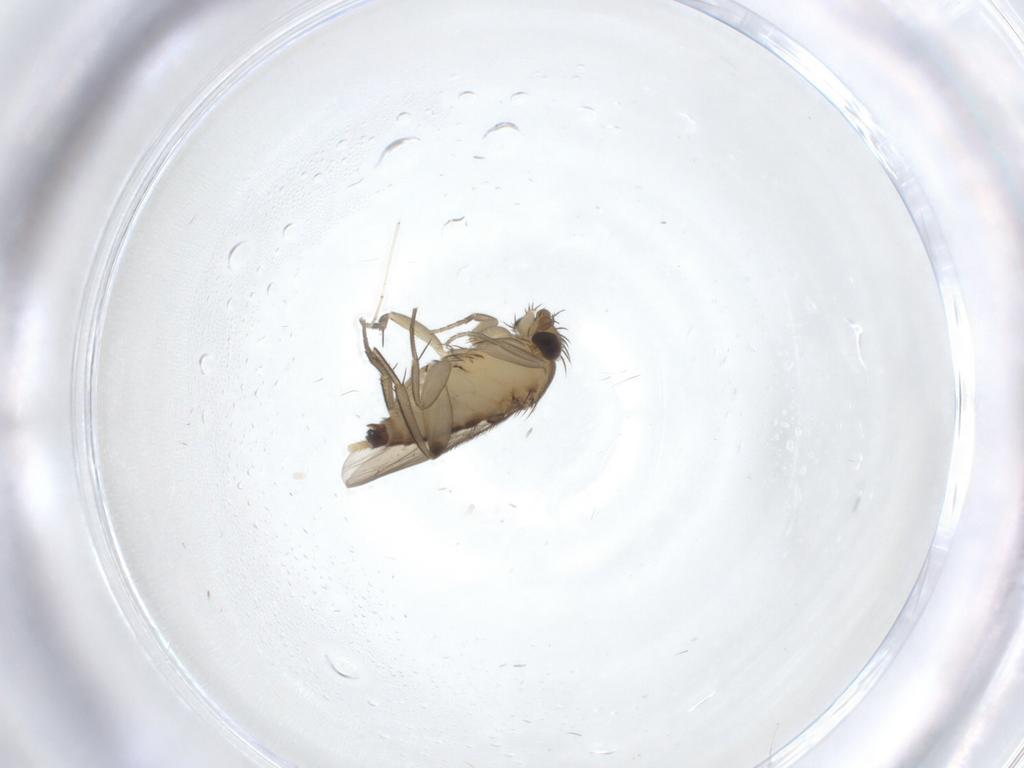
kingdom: Animalia
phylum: Arthropoda
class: Insecta
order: Diptera
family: Phoridae
